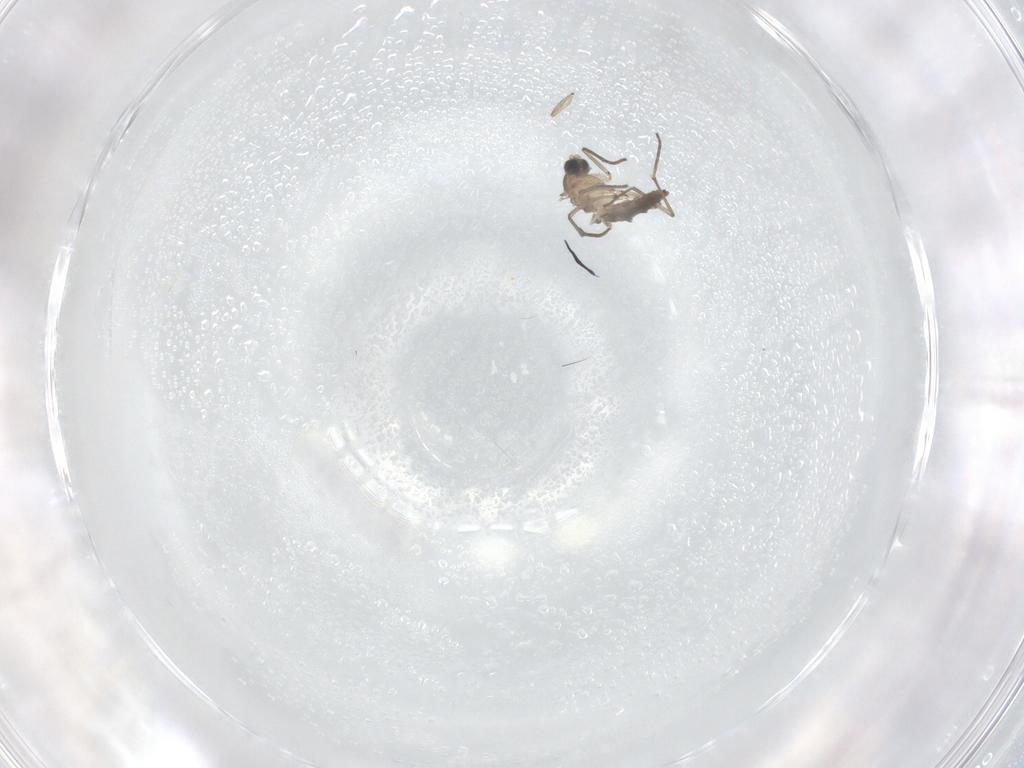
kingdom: Animalia
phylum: Arthropoda
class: Insecta
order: Diptera
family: Sciaridae
